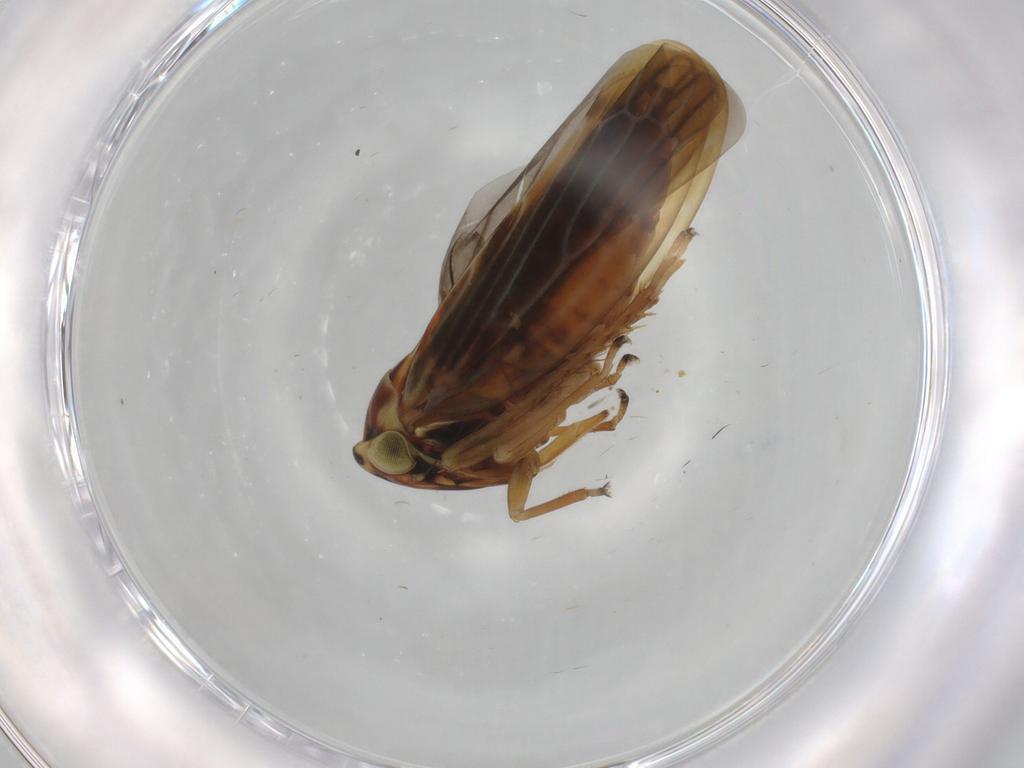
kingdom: Animalia
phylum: Arthropoda
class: Insecta
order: Hemiptera
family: Cicadellidae
